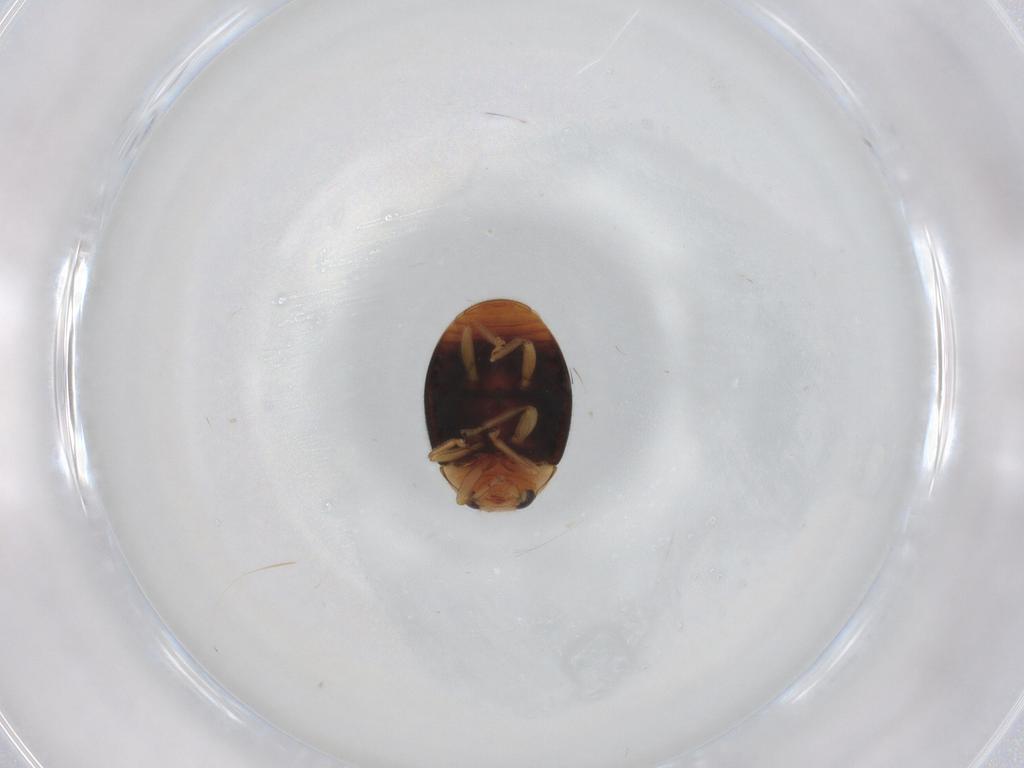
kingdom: Animalia
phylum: Arthropoda
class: Insecta
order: Coleoptera
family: Coccinellidae
